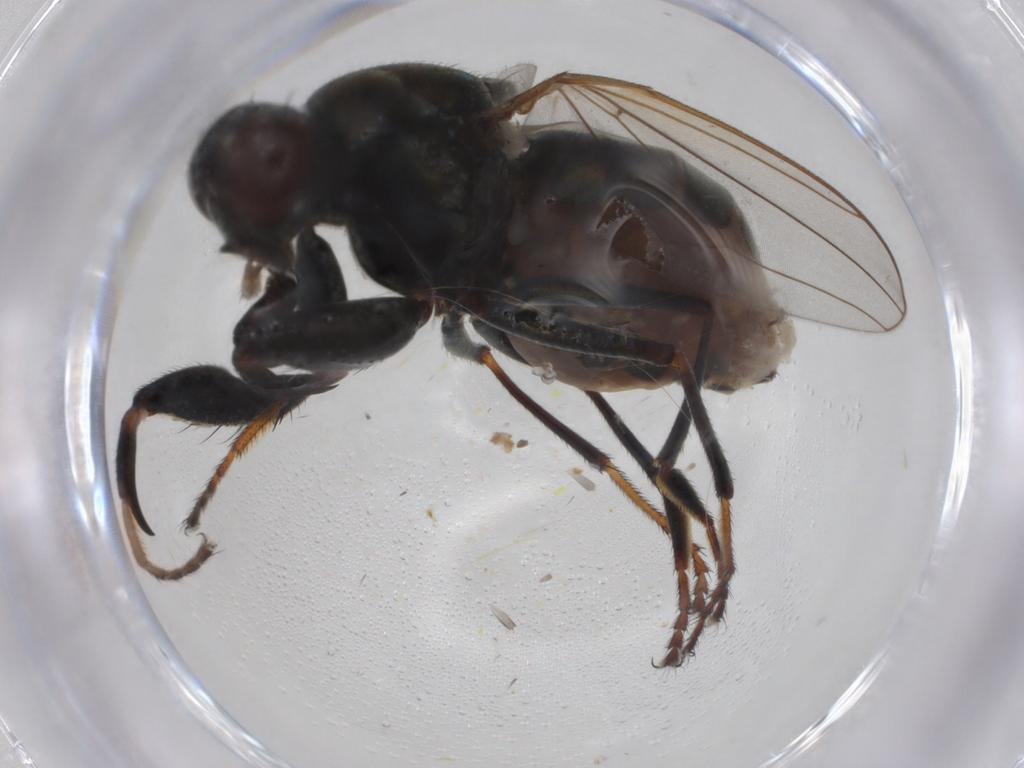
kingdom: Animalia
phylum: Arthropoda
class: Insecta
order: Diptera
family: Ephydridae
